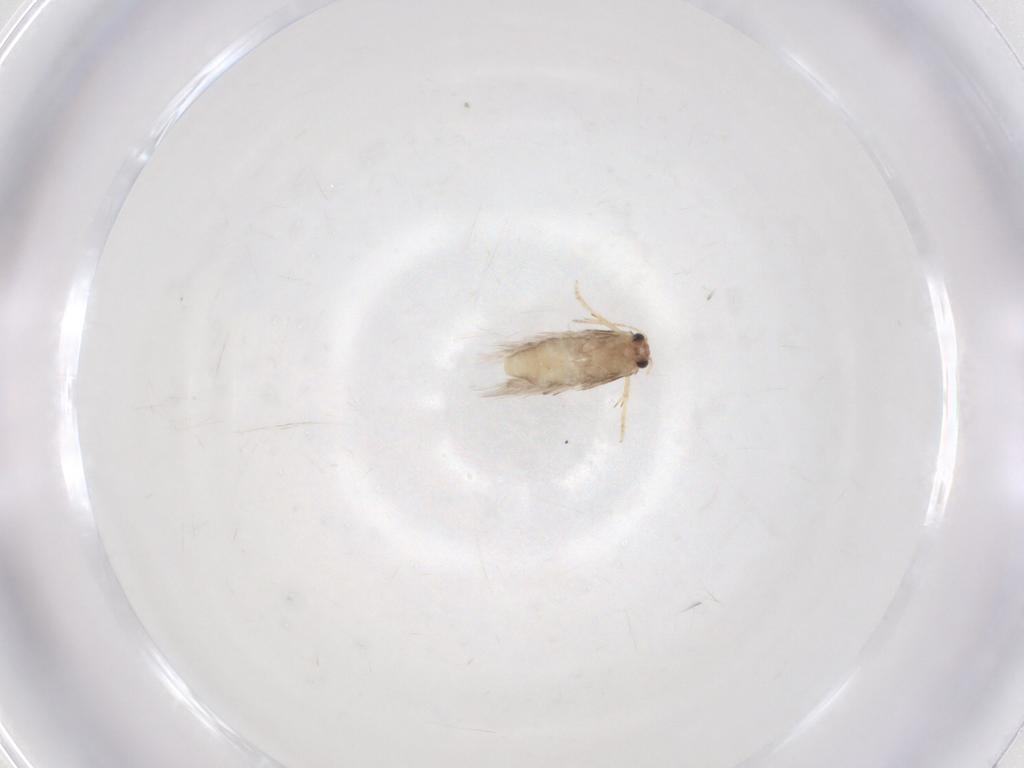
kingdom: Animalia
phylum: Arthropoda
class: Insecta
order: Lepidoptera
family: Nepticulidae
